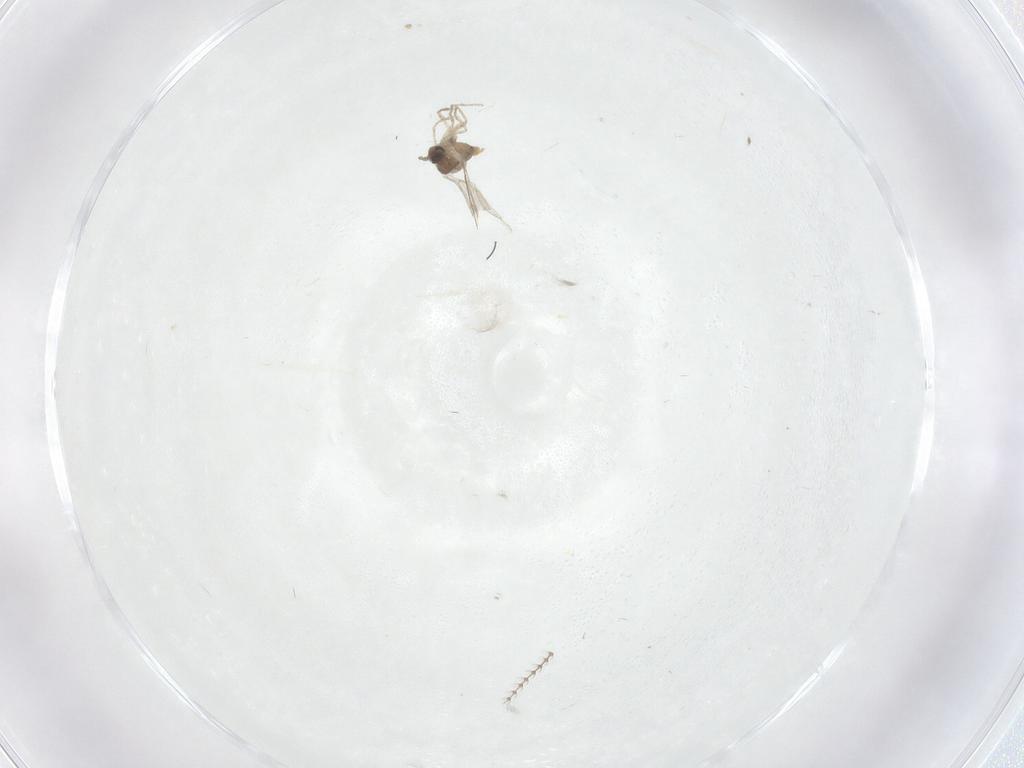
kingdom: Animalia
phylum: Arthropoda
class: Insecta
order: Diptera
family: Cecidomyiidae
